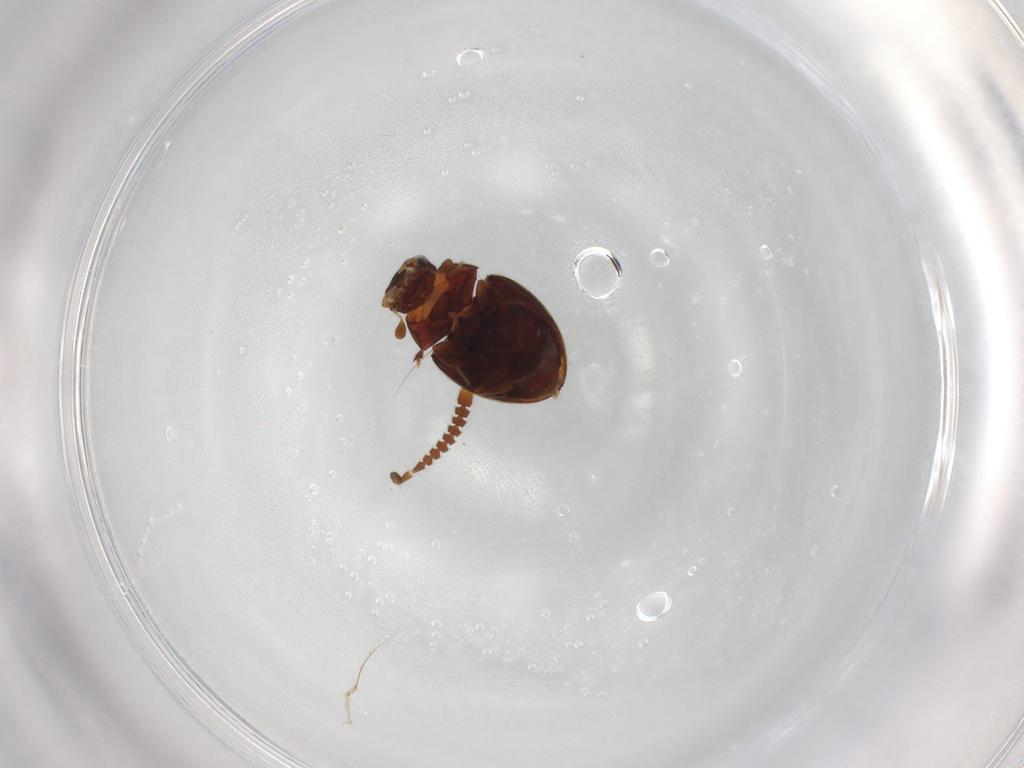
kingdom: Animalia
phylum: Arthropoda
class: Insecta
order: Coleoptera
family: Staphylinidae
